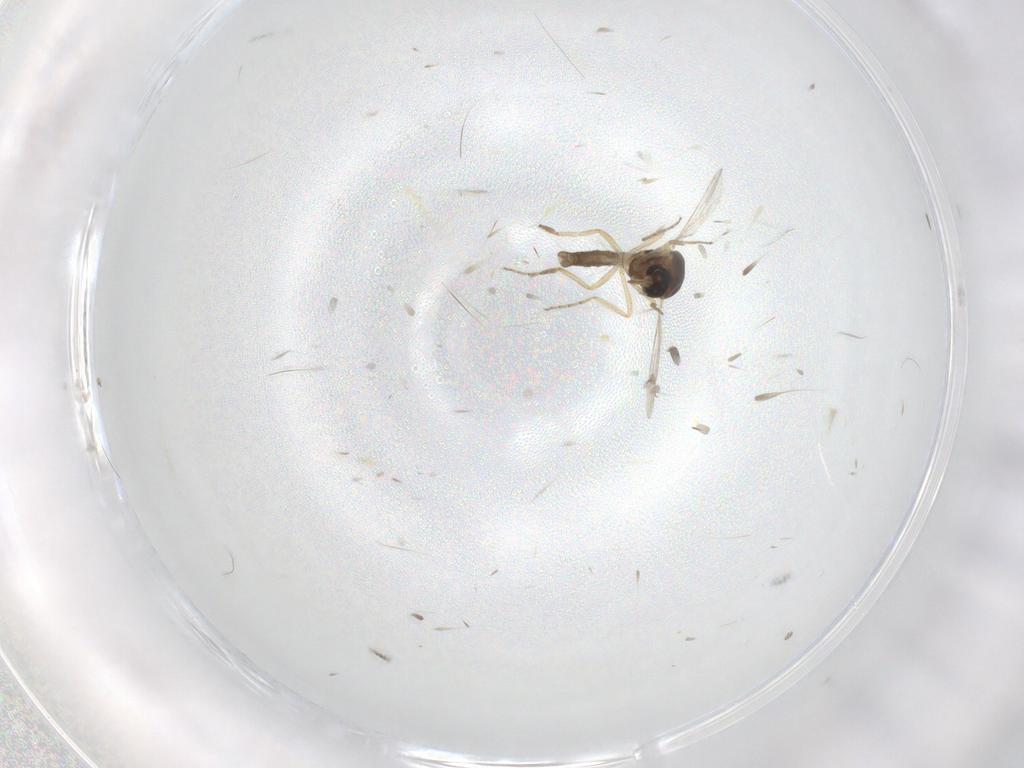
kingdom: Animalia
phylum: Arthropoda
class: Insecta
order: Diptera
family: Ceratopogonidae
